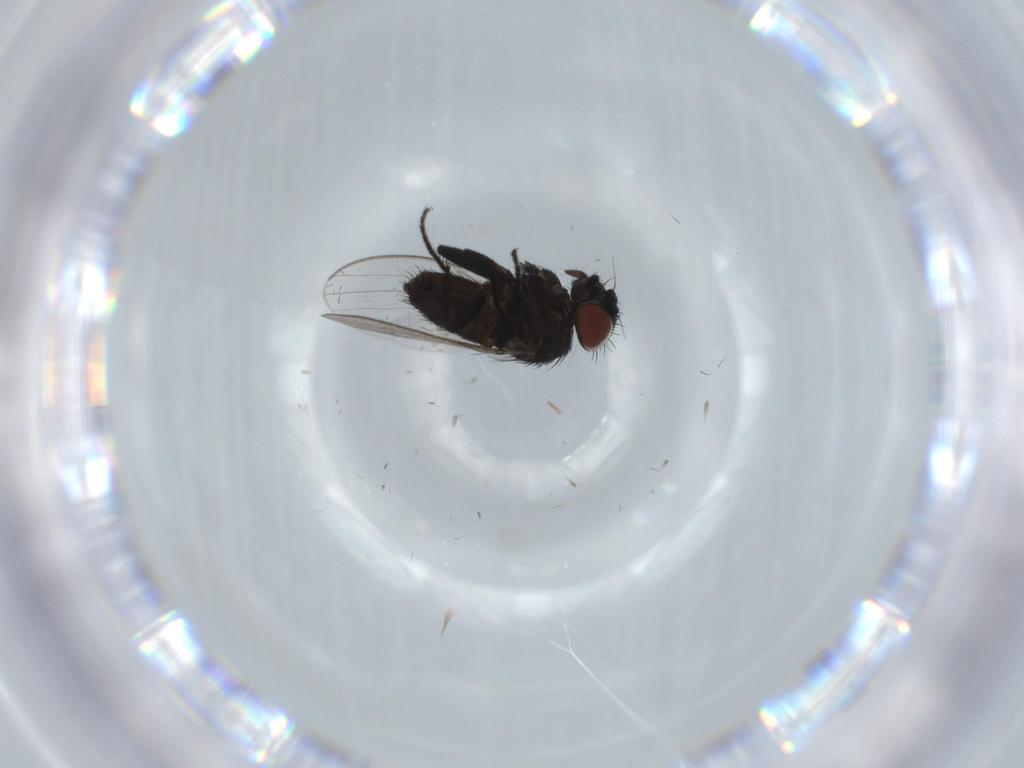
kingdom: Animalia
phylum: Arthropoda
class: Insecta
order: Diptera
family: Milichiidae
